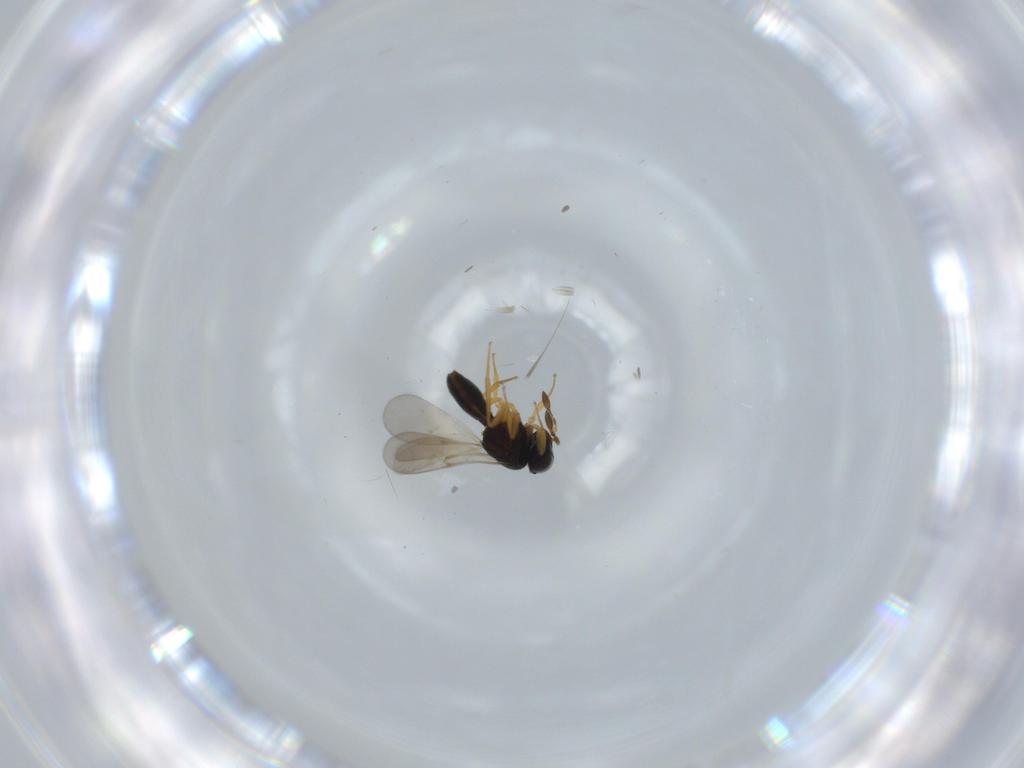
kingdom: Animalia
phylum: Arthropoda
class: Insecta
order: Hymenoptera
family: Scelionidae
